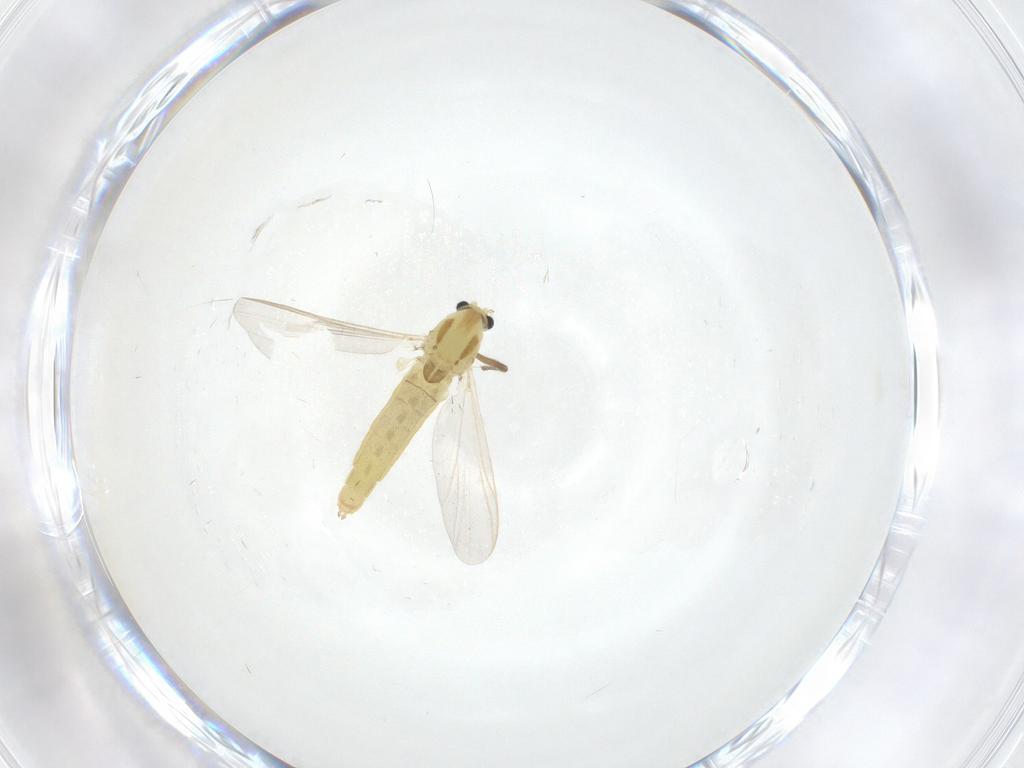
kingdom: Animalia
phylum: Arthropoda
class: Insecta
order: Diptera
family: Chironomidae
